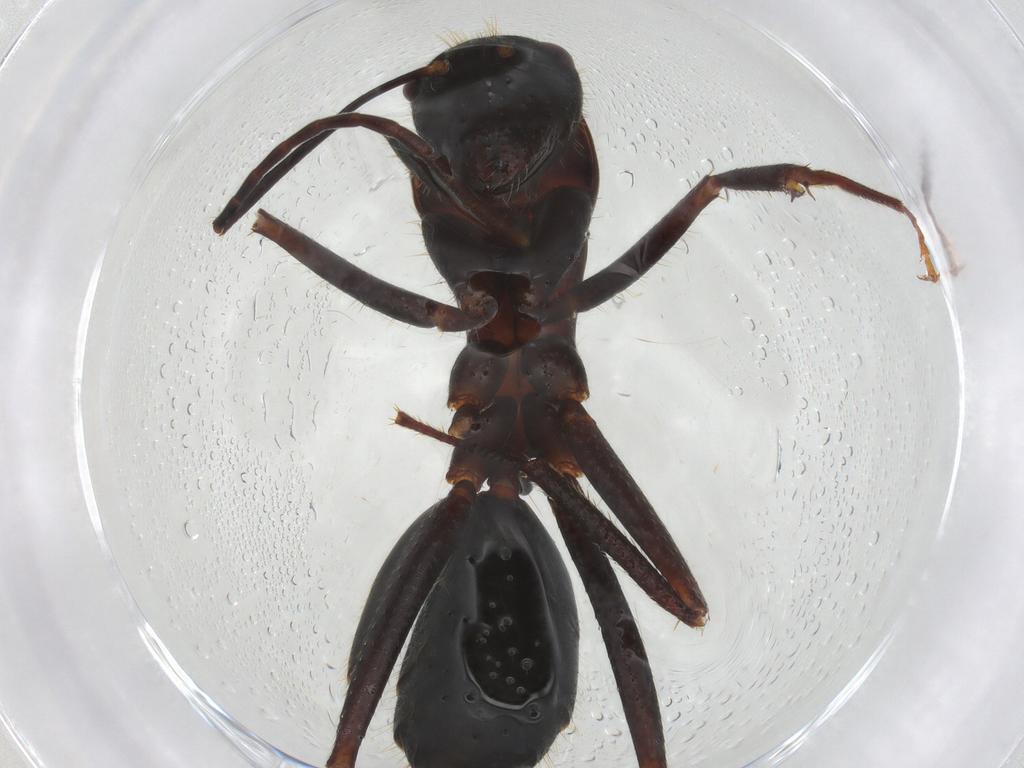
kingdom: Animalia
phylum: Arthropoda
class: Insecta
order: Hymenoptera
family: Formicidae
